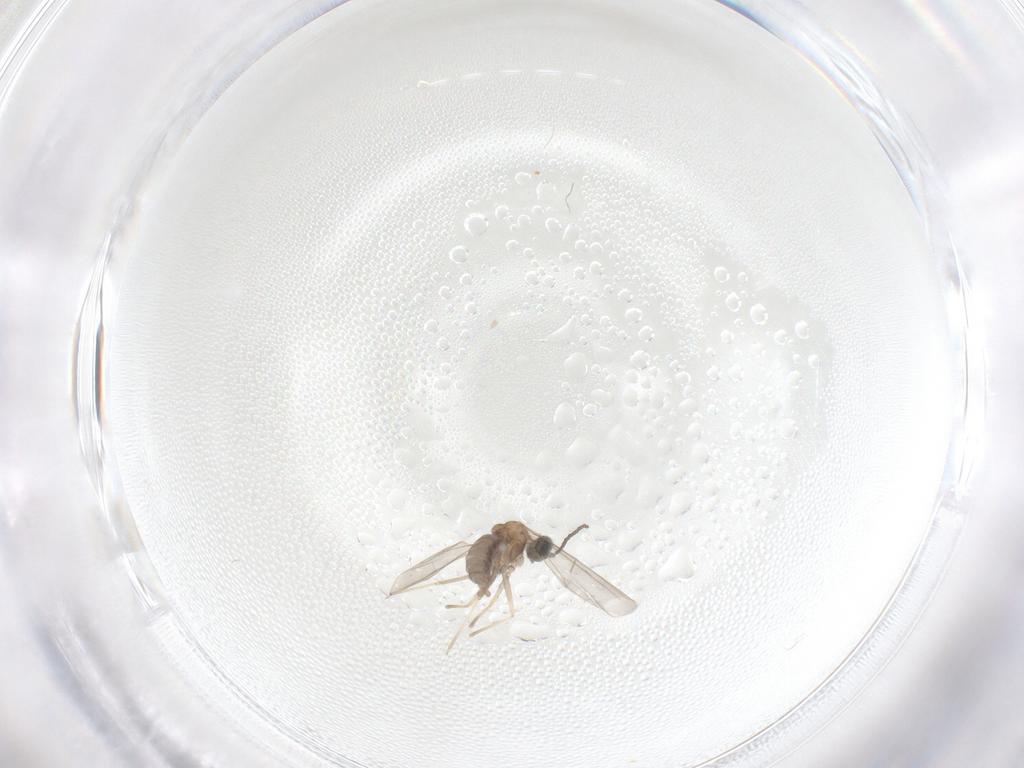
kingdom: Animalia
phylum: Arthropoda
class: Insecta
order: Diptera
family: Cecidomyiidae
